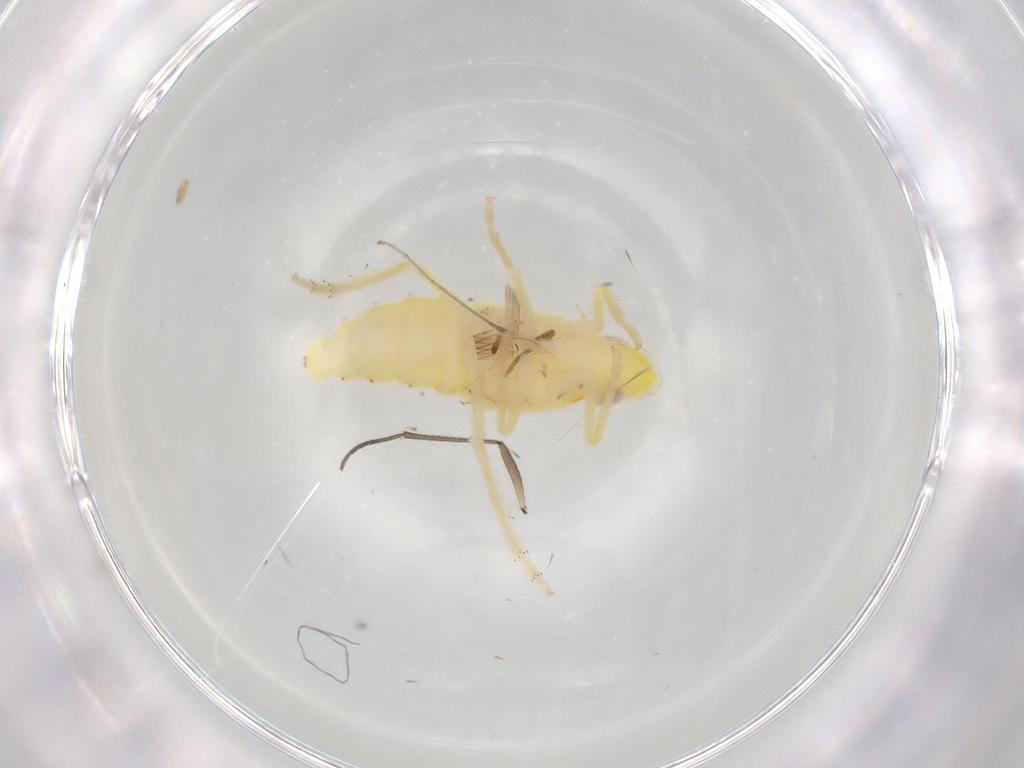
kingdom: Animalia
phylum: Arthropoda
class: Insecta
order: Hemiptera
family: Tropiduchidae
